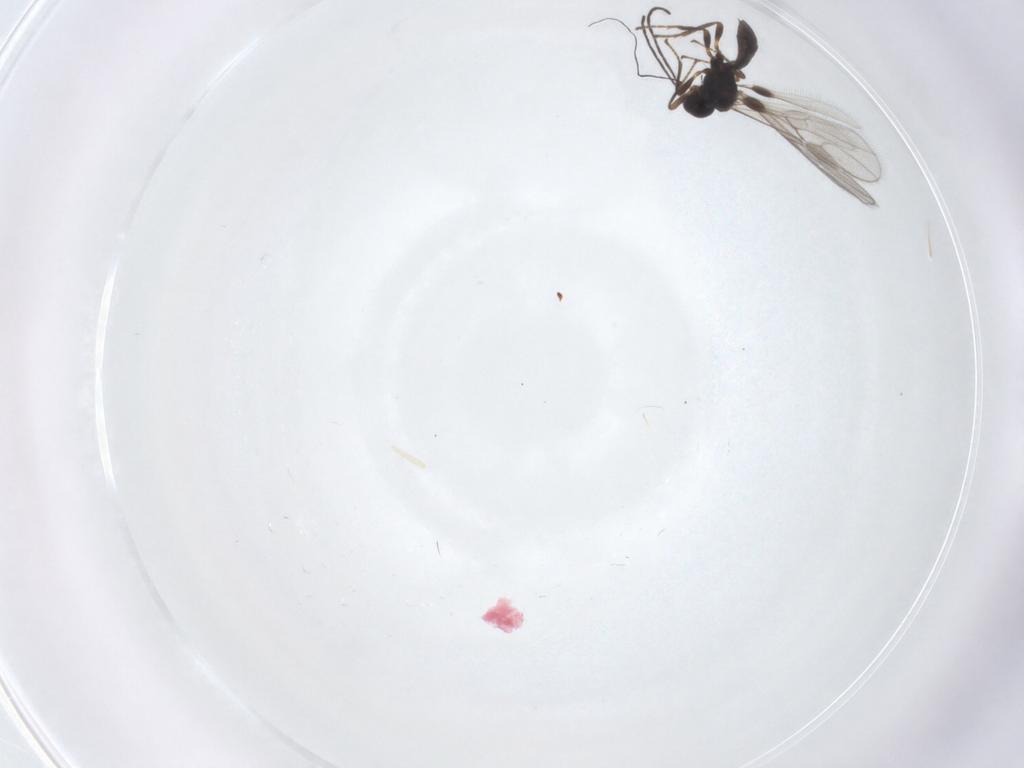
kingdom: Animalia
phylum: Arthropoda
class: Insecta
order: Hymenoptera
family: Braconidae
